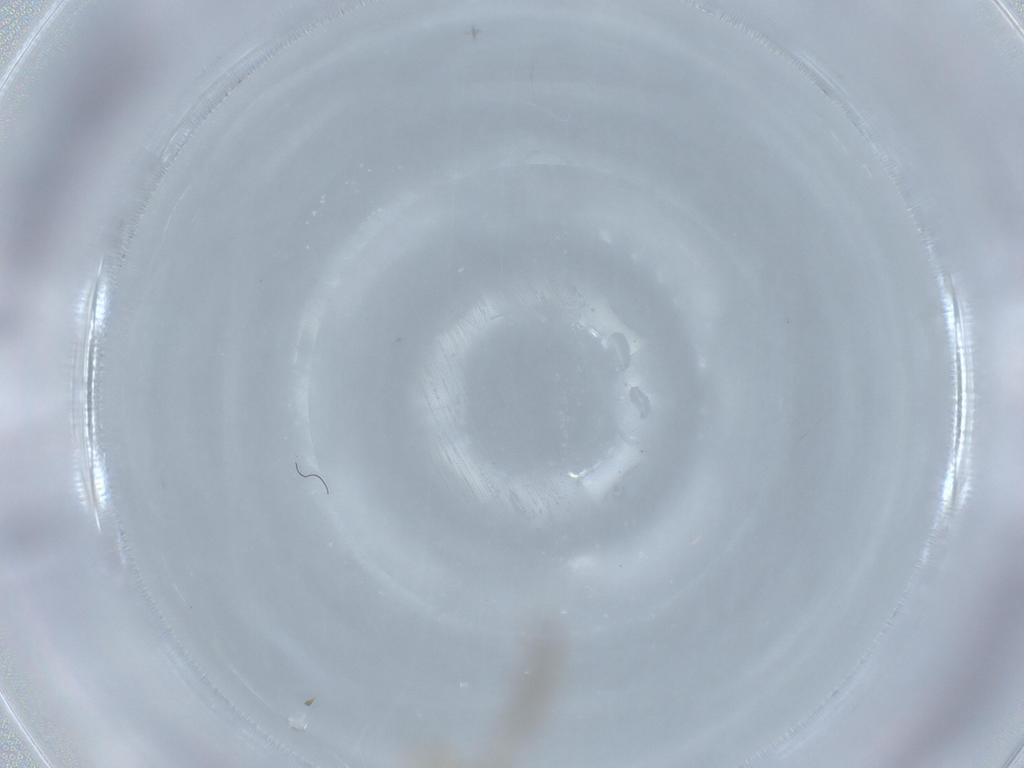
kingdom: Animalia
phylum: Arthropoda
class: Insecta
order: Diptera
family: Cecidomyiidae
